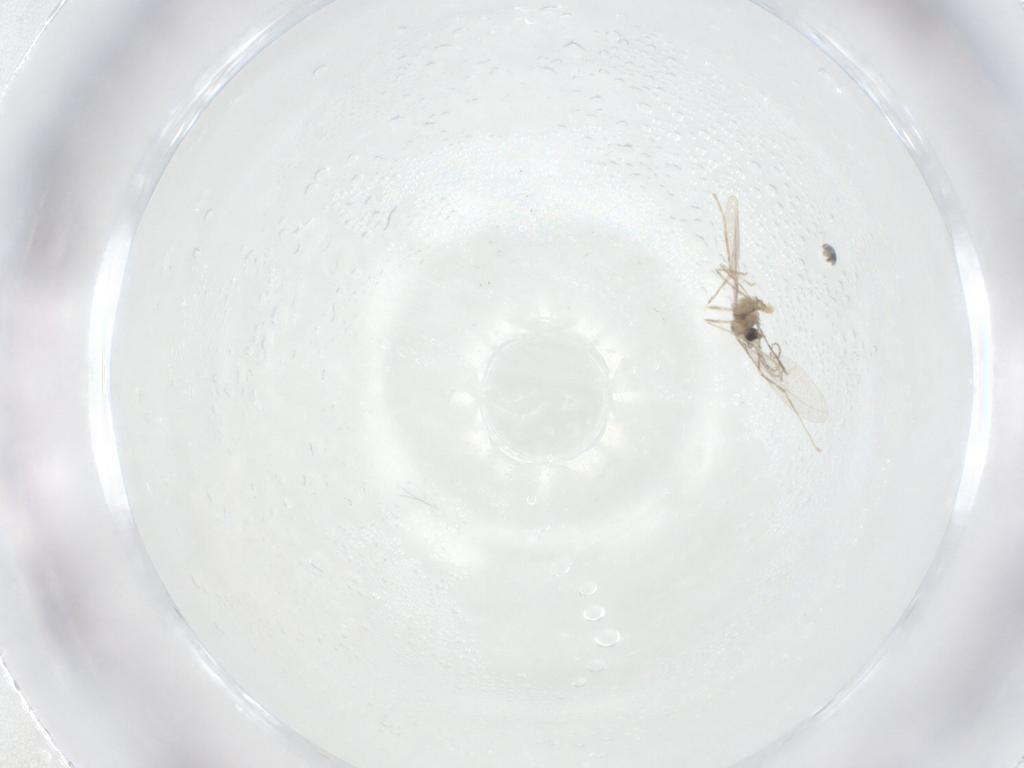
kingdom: Animalia
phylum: Arthropoda
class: Insecta
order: Diptera
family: Cecidomyiidae
